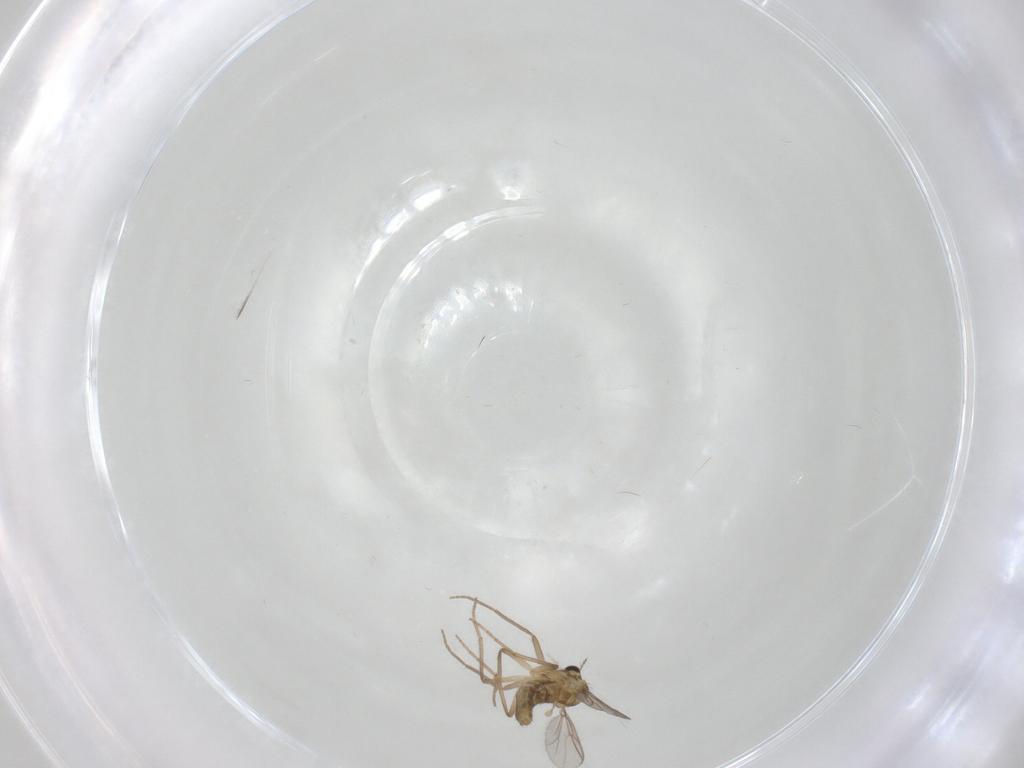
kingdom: Animalia
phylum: Arthropoda
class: Insecta
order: Diptera
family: Chironomidae
